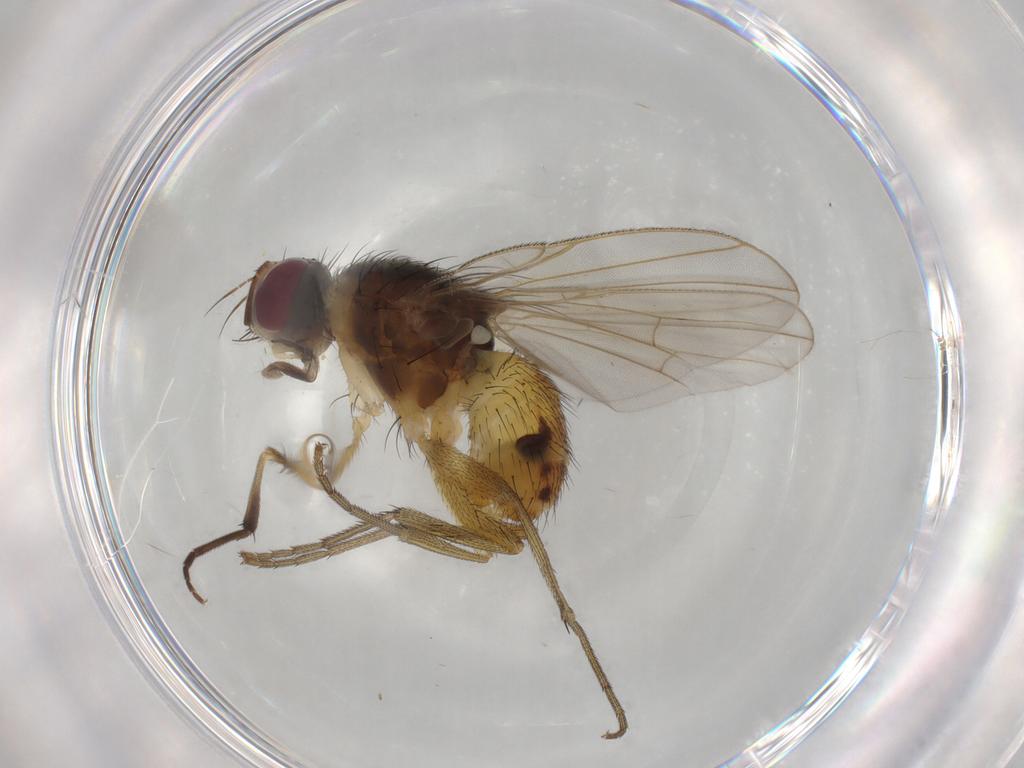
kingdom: Animalia
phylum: Arthropoda
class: Insecta
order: Diptera
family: Muscidae
